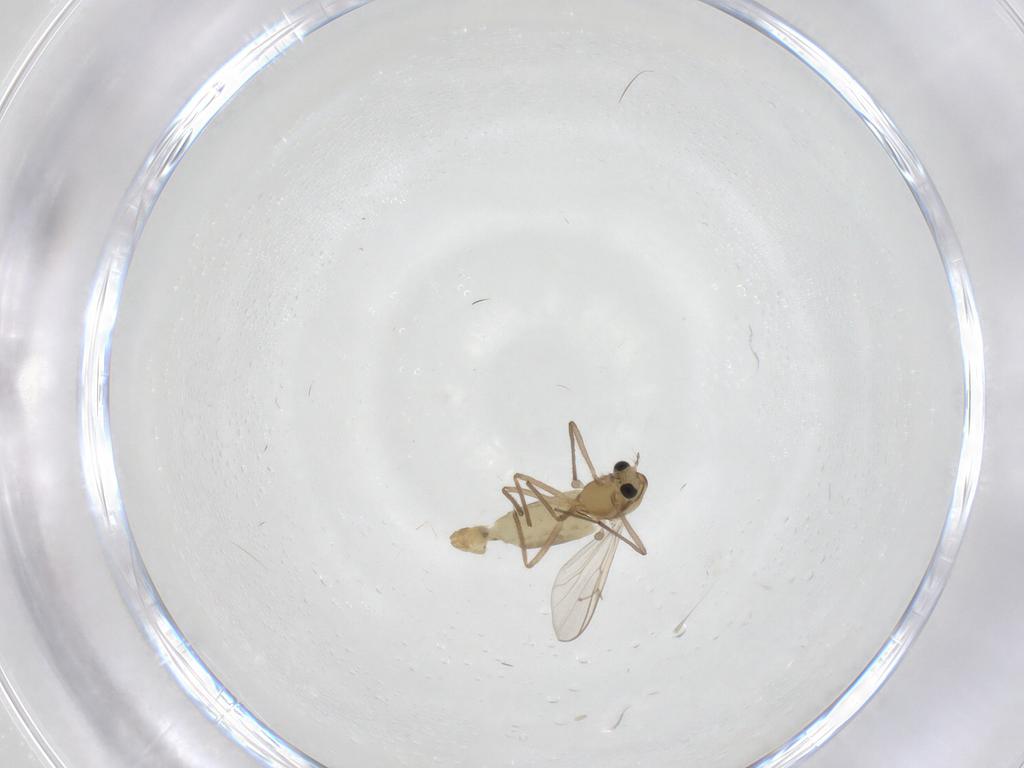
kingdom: Animalia
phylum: Arthropoda
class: Insecta
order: Diptera
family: Chironomidae
